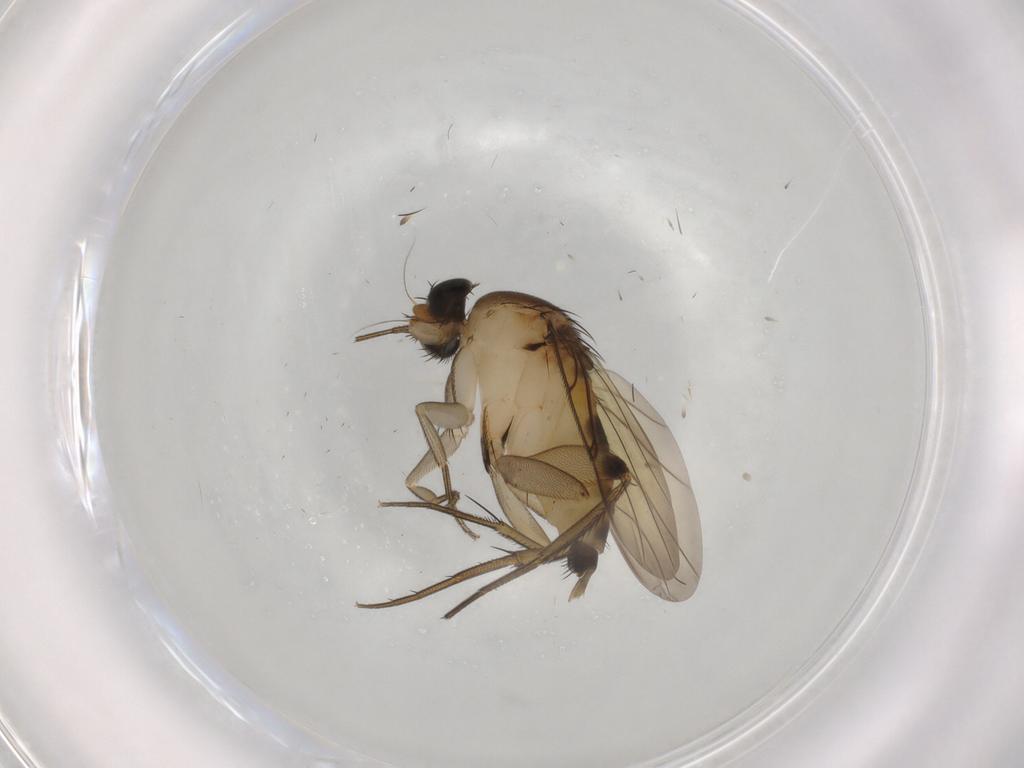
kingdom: Animalia
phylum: Arthropoda
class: Insecta
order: Diptera
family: Phoridae
